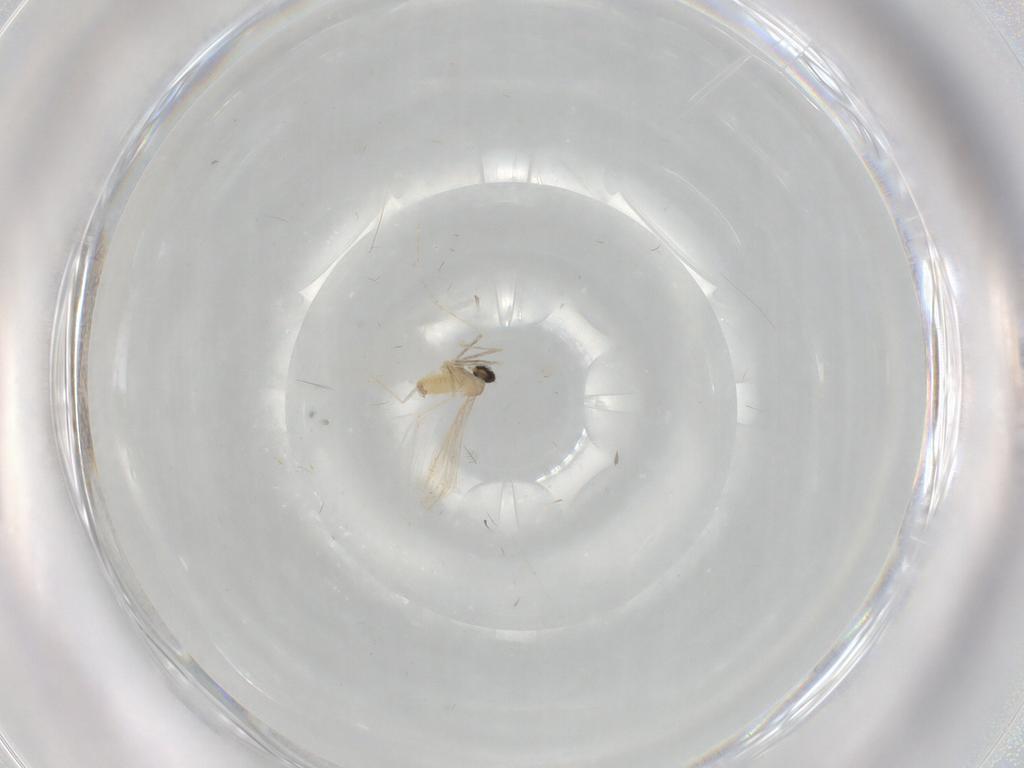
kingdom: Animalia
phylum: Arthropoda
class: Insecta
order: Diptera
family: Cecidomyiidae
